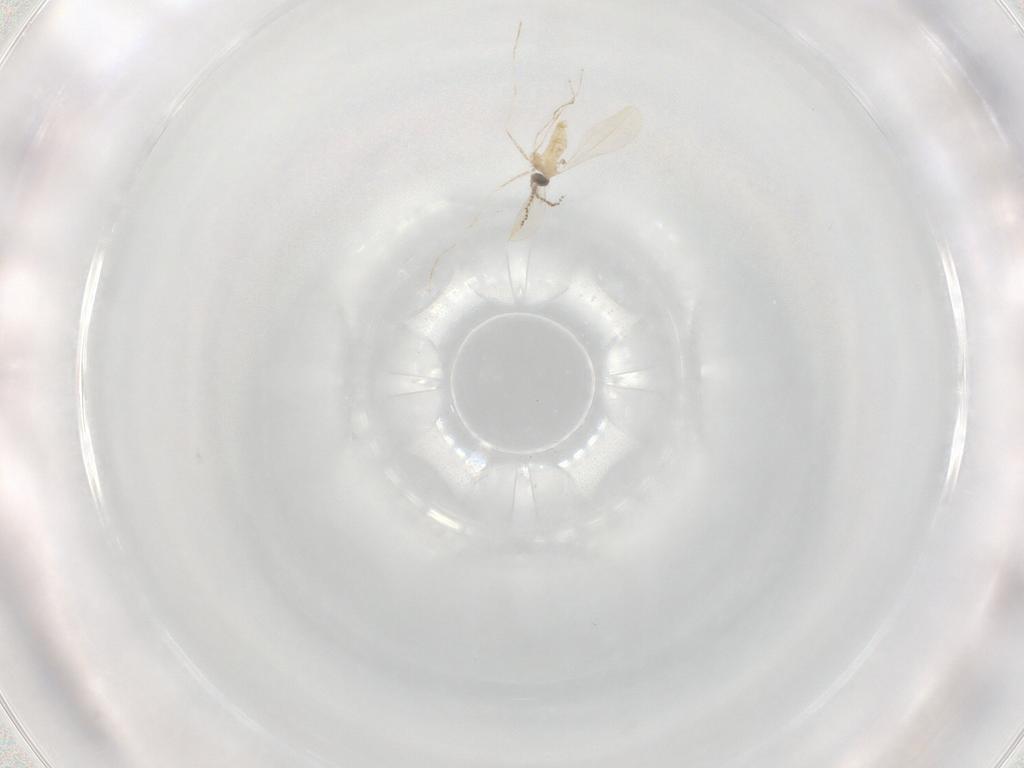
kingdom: Animalia
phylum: Arthropoda
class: Insecta
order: Diptera
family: Cecidomyiidae
